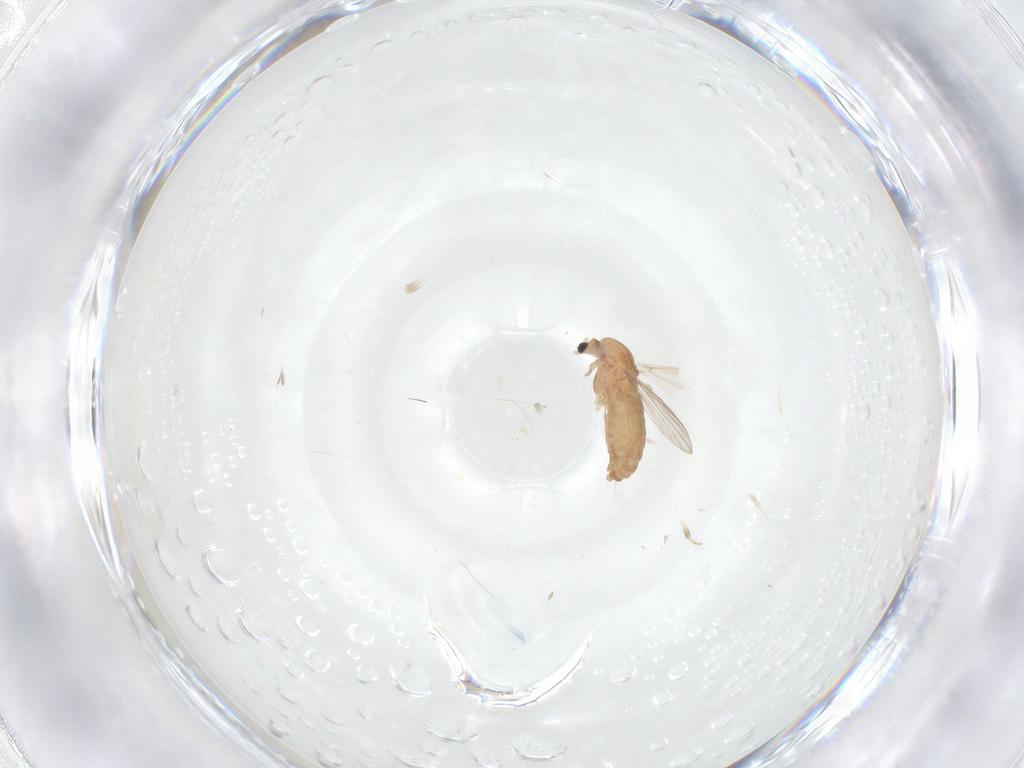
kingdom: Animalia
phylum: Arthropoda
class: Insecta
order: Diptera
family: Chironomidae
